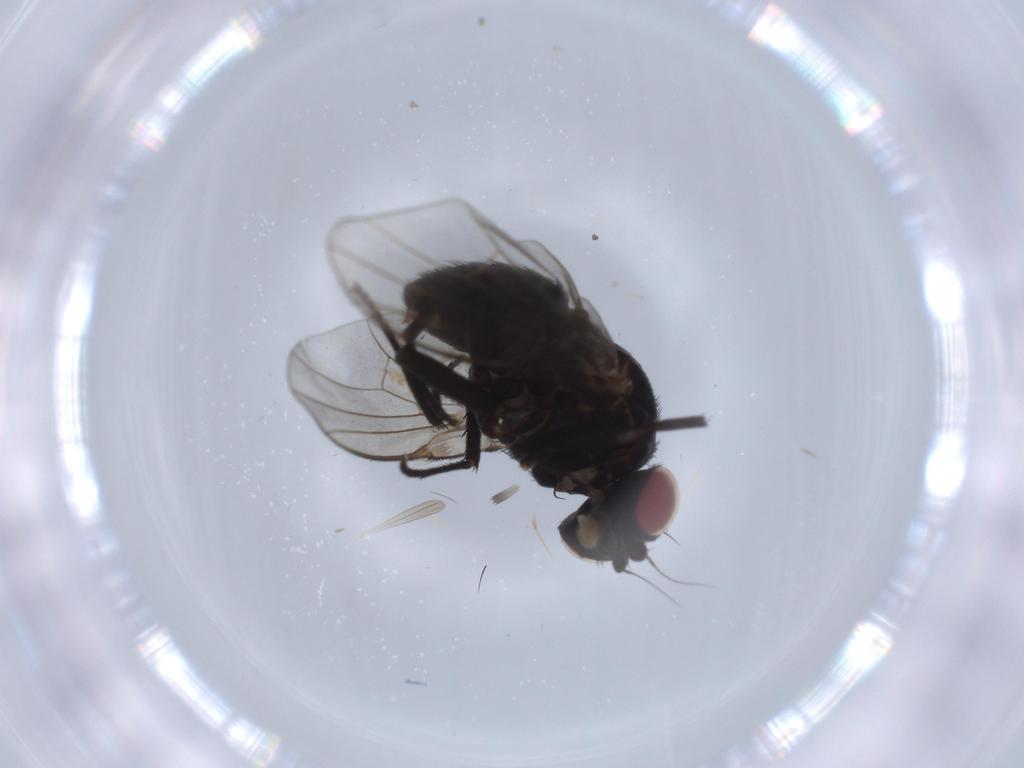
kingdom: Animalia
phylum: Arthropoda
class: Insecta
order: Diptera
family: Agromyzidae
